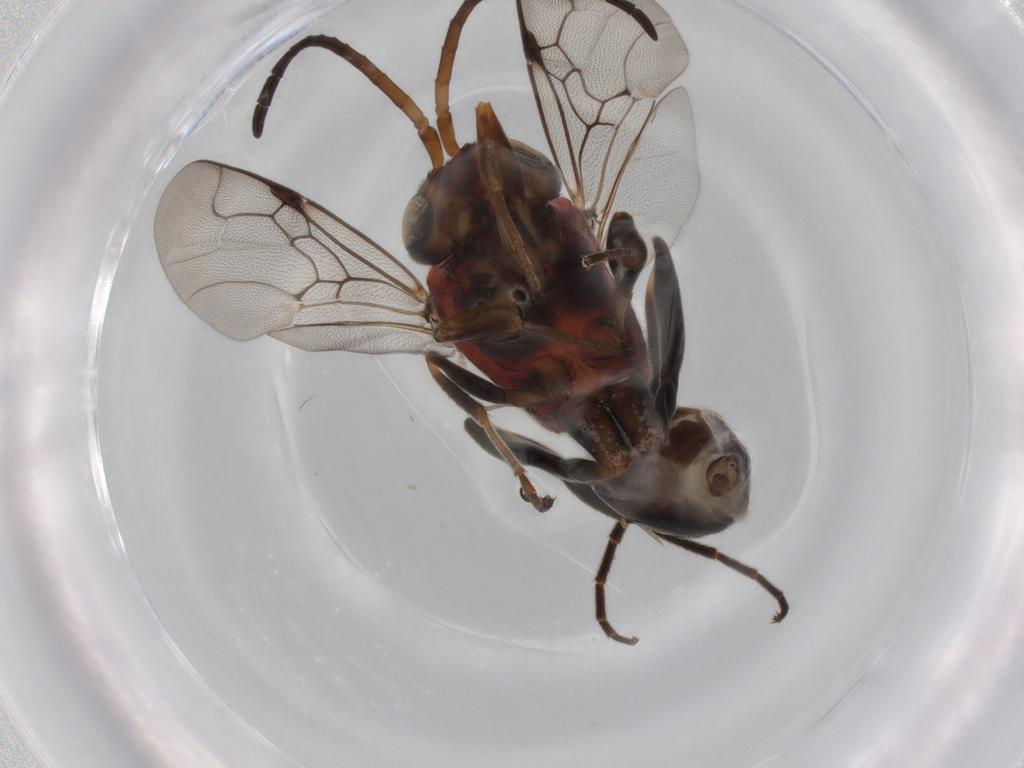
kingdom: Animalia
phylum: Arthropoda
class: Insecta
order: Hymenoptera
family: Evaniidae
